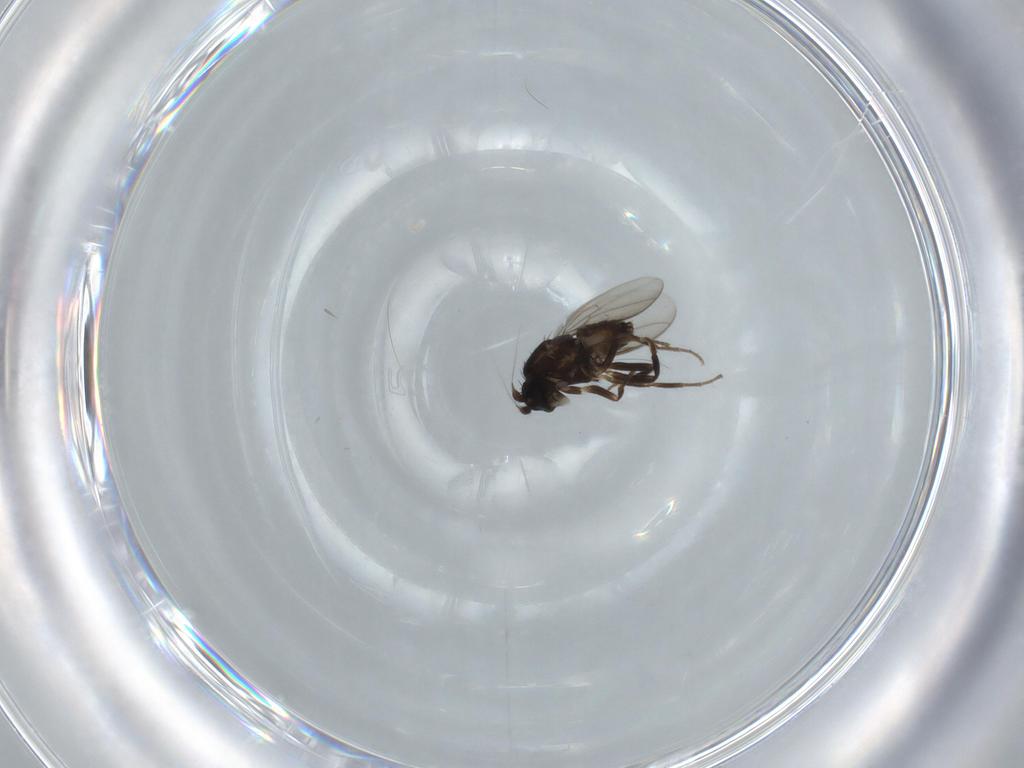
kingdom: Animalia
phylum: Arthropoda
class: Insecta
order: Diptera
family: Sphaeroceridae
